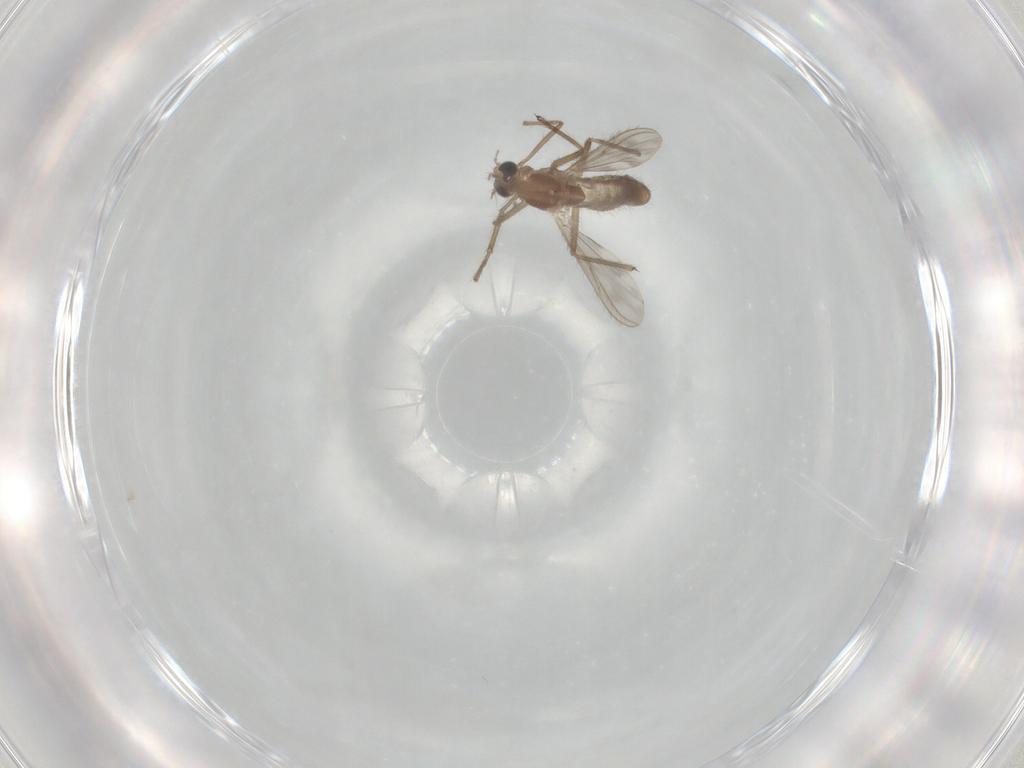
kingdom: Animalia
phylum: Arthropoda
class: Insecta
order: Diptera
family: Chironomidae
